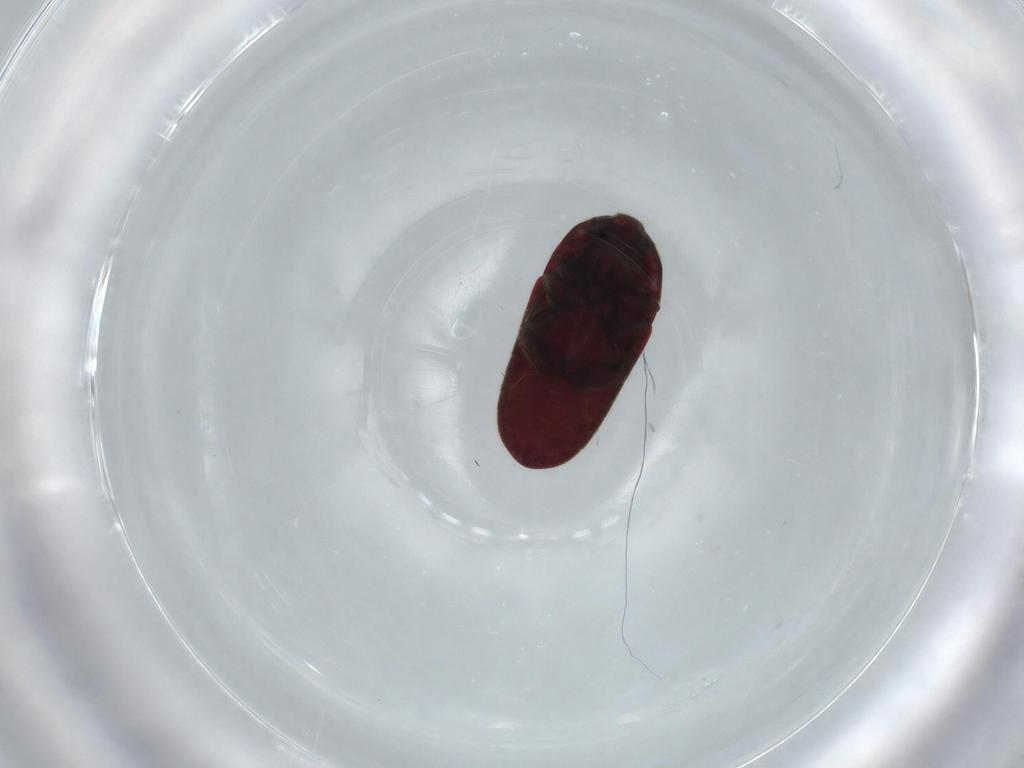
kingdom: Animalia
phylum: Arthropoda
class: Insecta
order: Coleoptera
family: Throscidae
